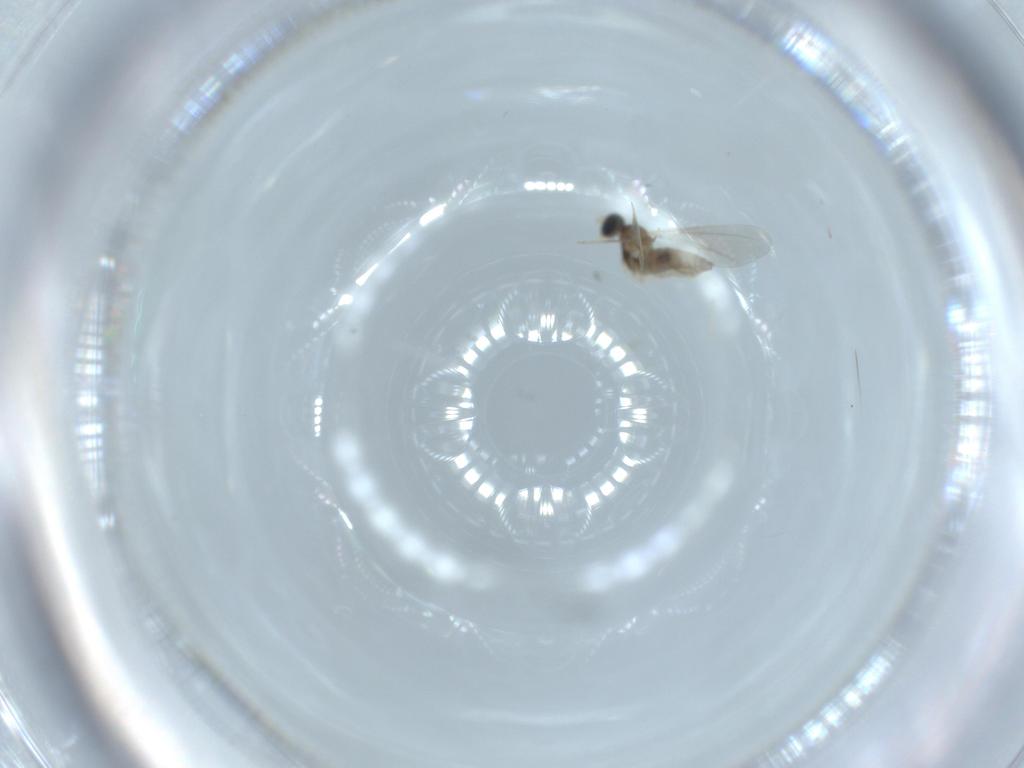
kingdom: Animalia
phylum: Arthropoda
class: Insecta
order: Diptera
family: Cecidomyiidae
